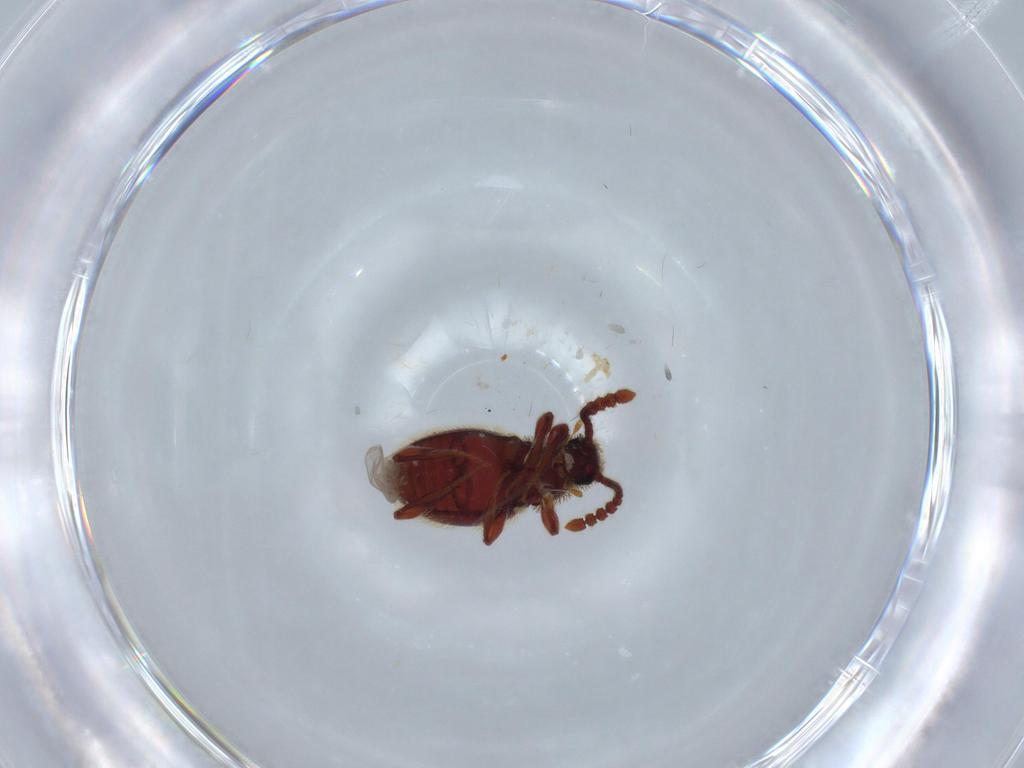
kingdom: Animalia
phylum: Arthropoda
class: Insecta
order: Coleoptera
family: Staphylinidae
